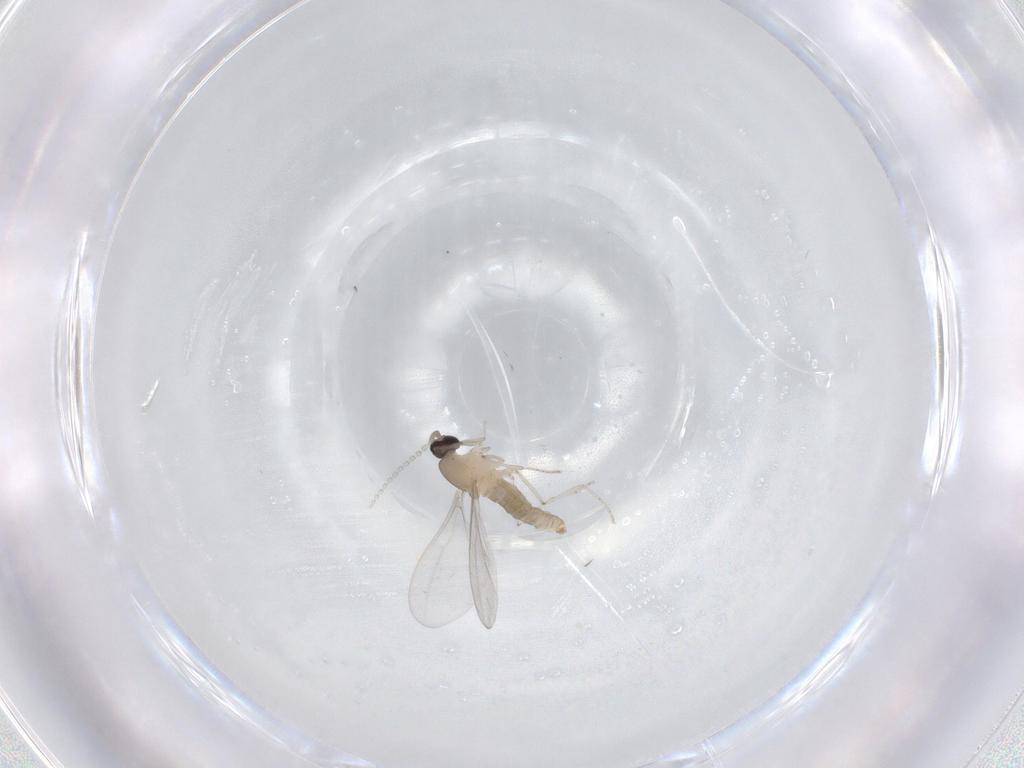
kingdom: Animalia
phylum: Arthropoda
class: Insecta
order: Diptera
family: Cecidomyiidae
